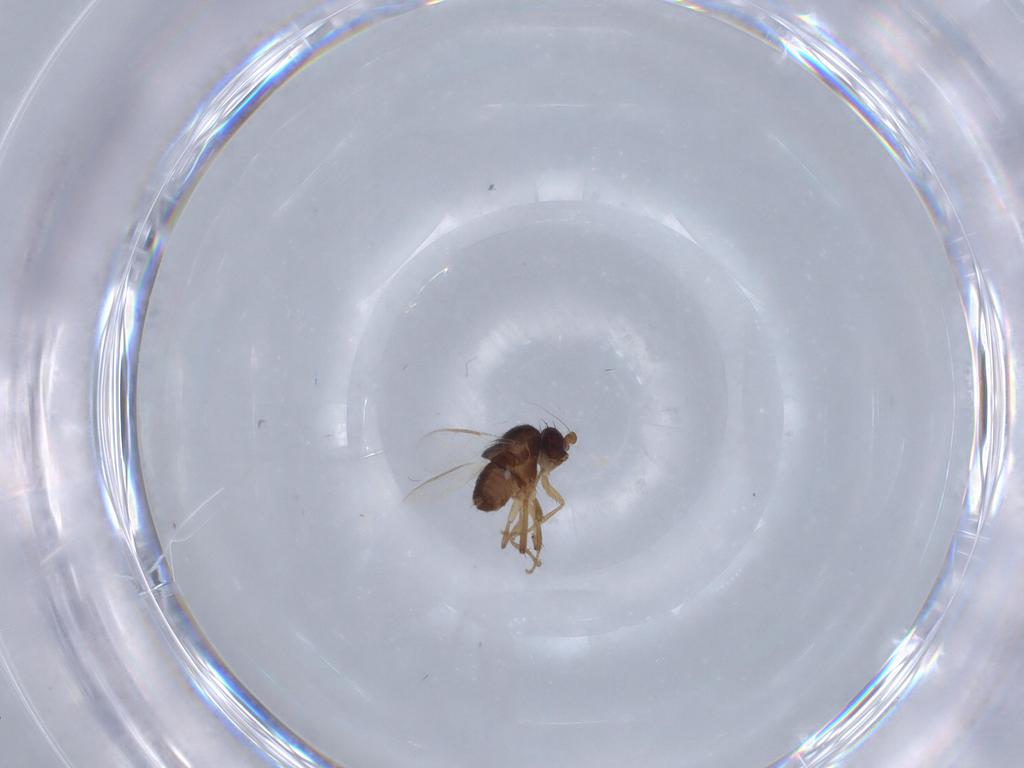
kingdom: Animalia
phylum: Arthropoda
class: Insecta
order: Diptera
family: Sphaeroceridae
